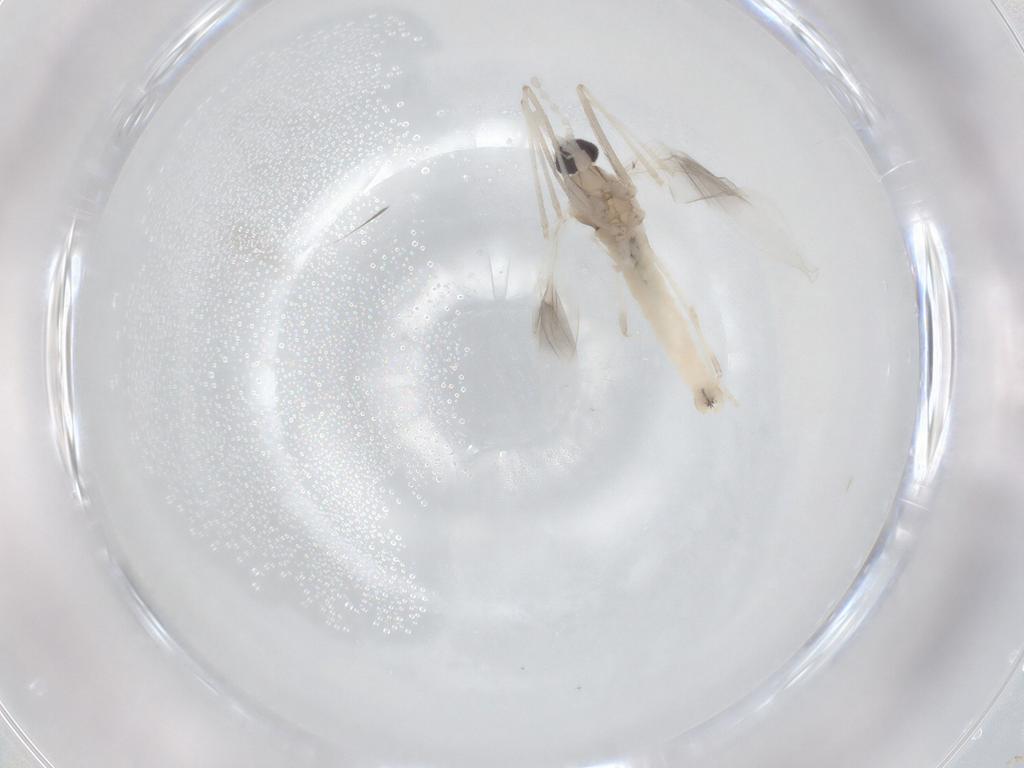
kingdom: Animalia
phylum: Arthropoda
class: Insecta
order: Diptera
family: Cecidomyiidae
